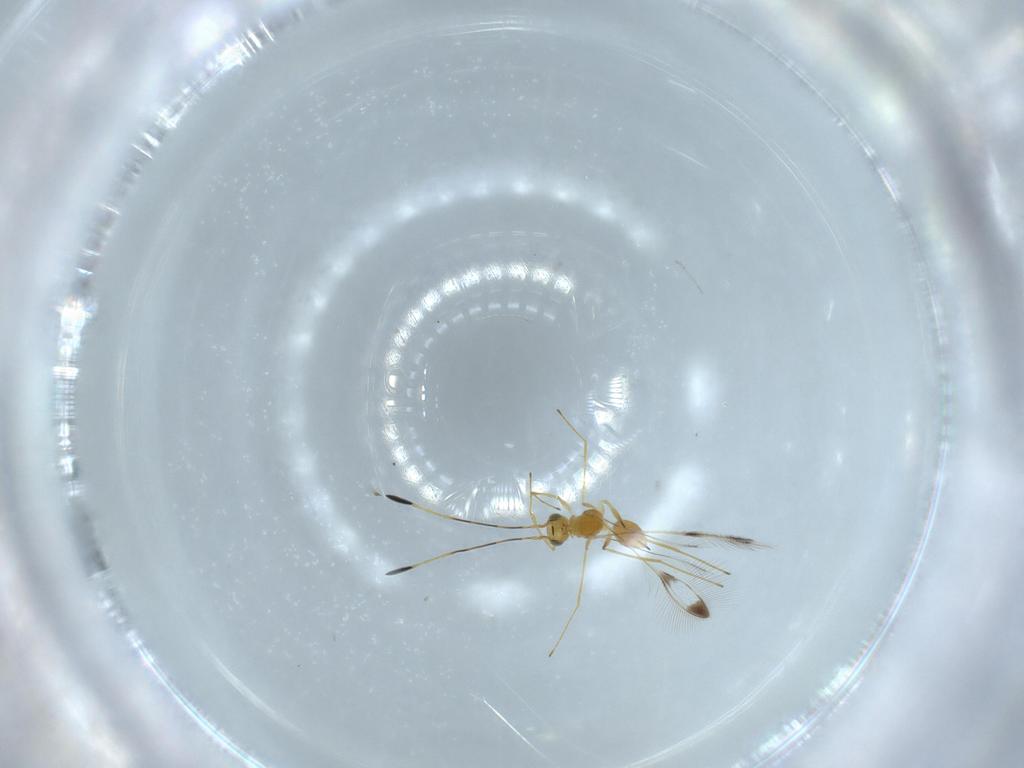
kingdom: Animalia
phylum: Arthropoda
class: Insecta
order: Hymenoptera
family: Mymaridae
